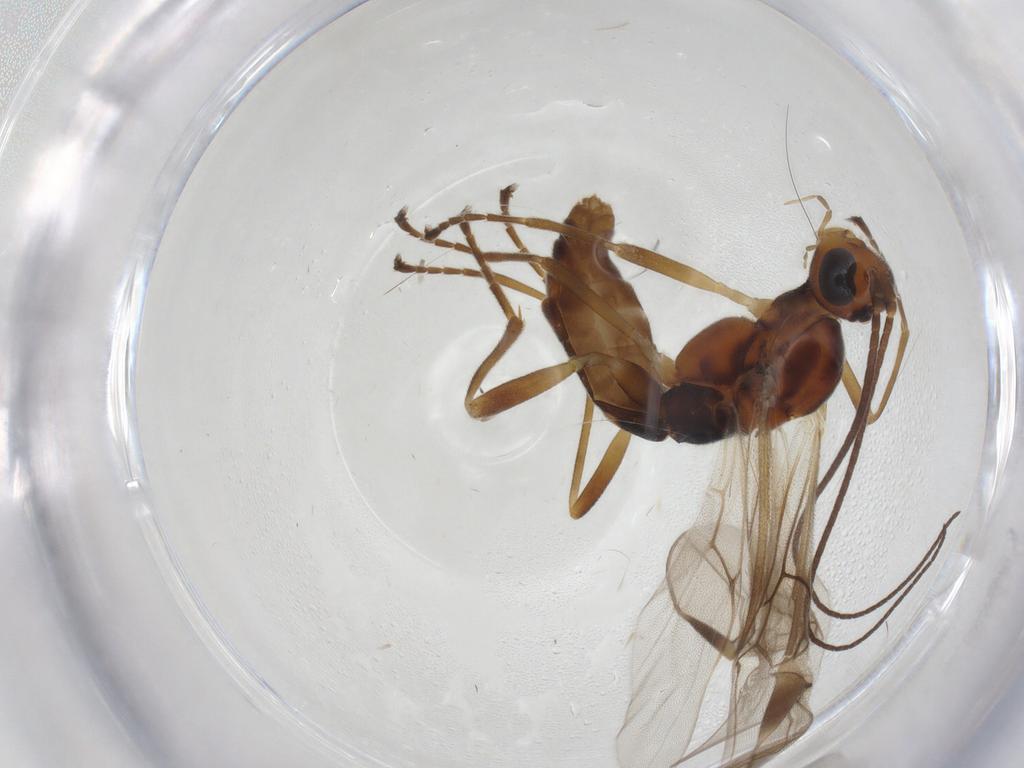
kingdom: Animalia
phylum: Arthropoda
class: Insecta
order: Hymenoptera
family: Braconidae
